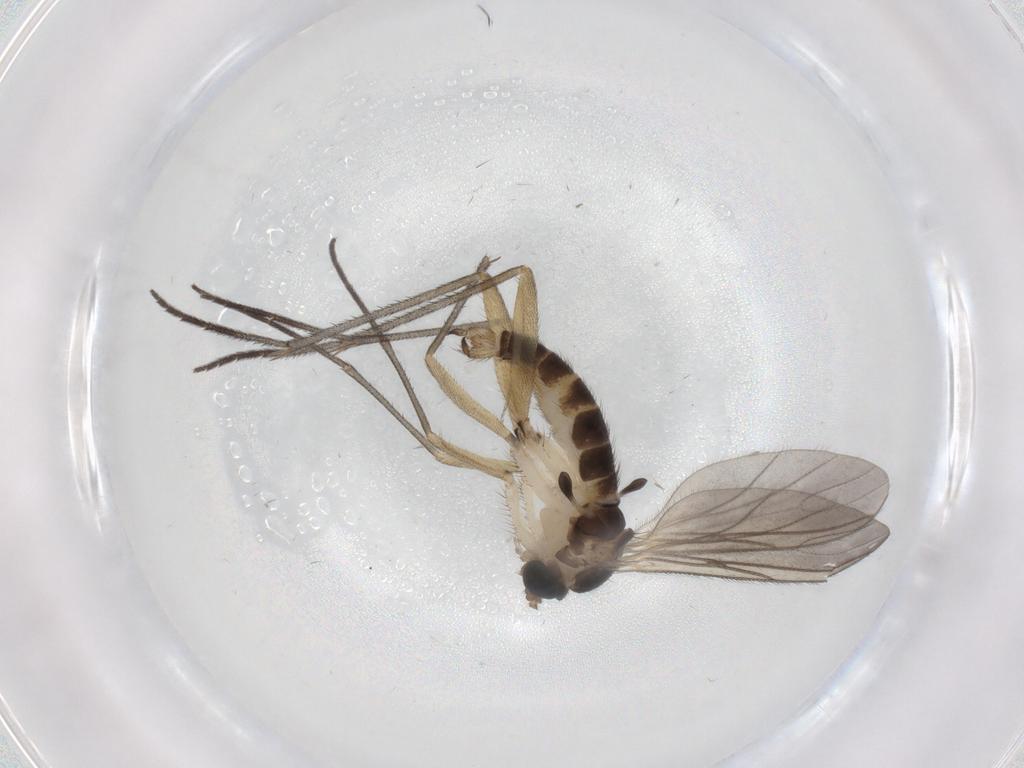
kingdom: Animalia
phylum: Arthropoda
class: Insecta
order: Diptera
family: Sciaridae
